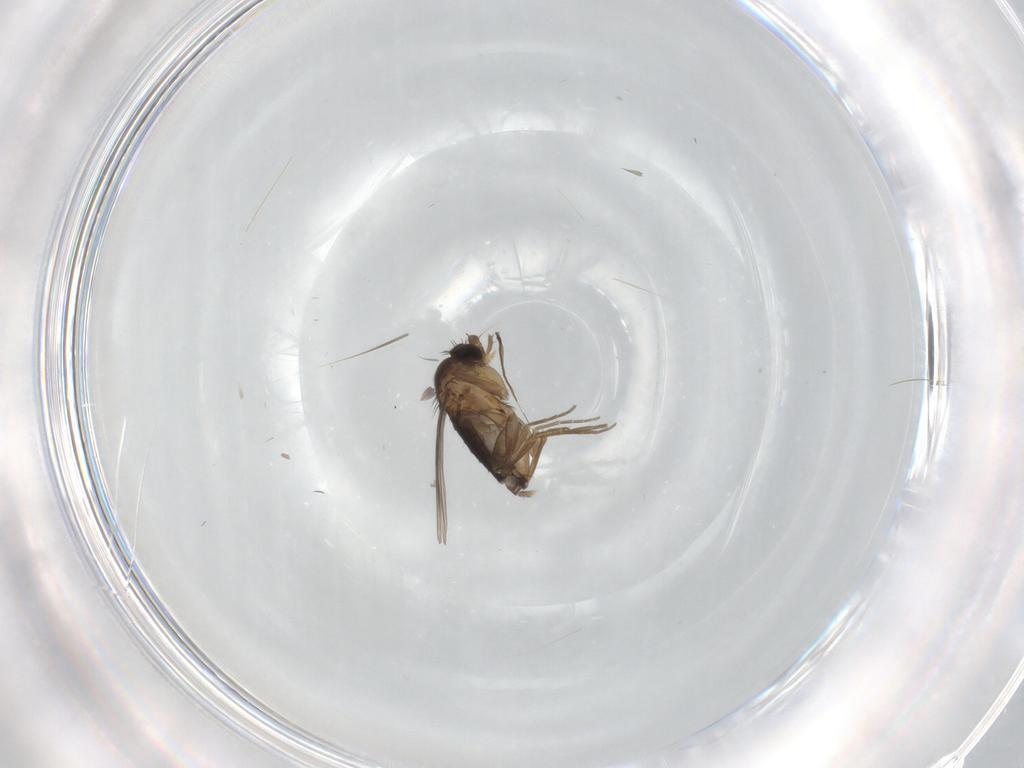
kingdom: Animalia
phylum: Arthropoda
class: Insecta
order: Diptera
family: Phoridae
